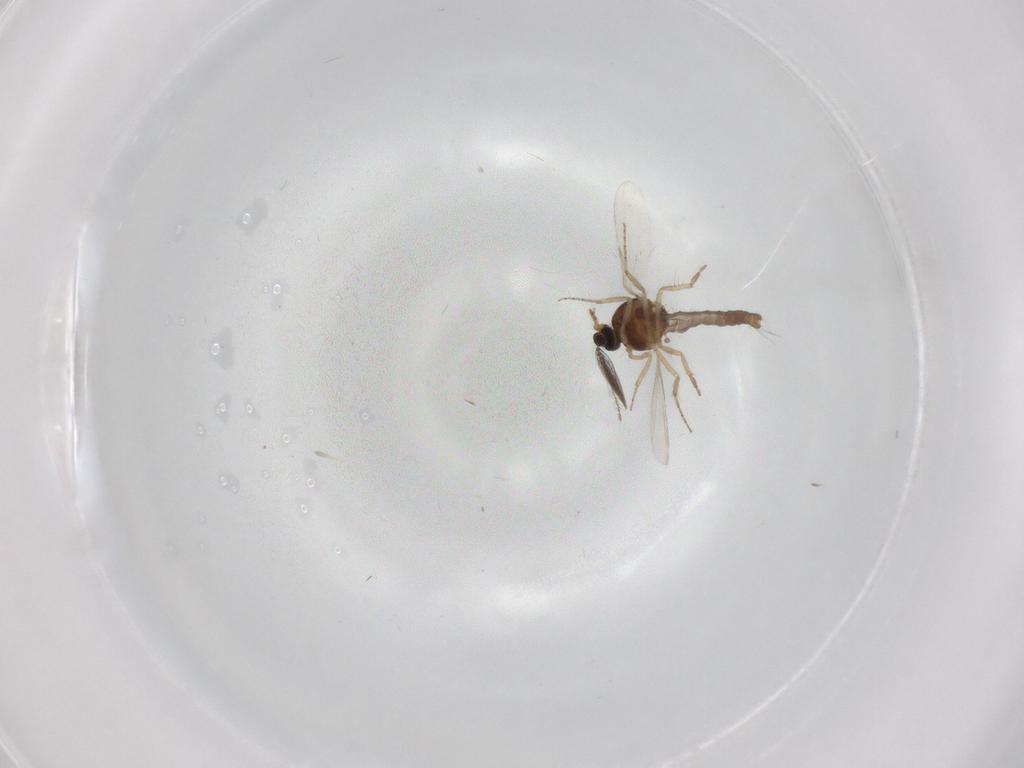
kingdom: Animalia
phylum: Arthropoda
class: Insecta
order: Diptera
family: Ceratopogonidae
